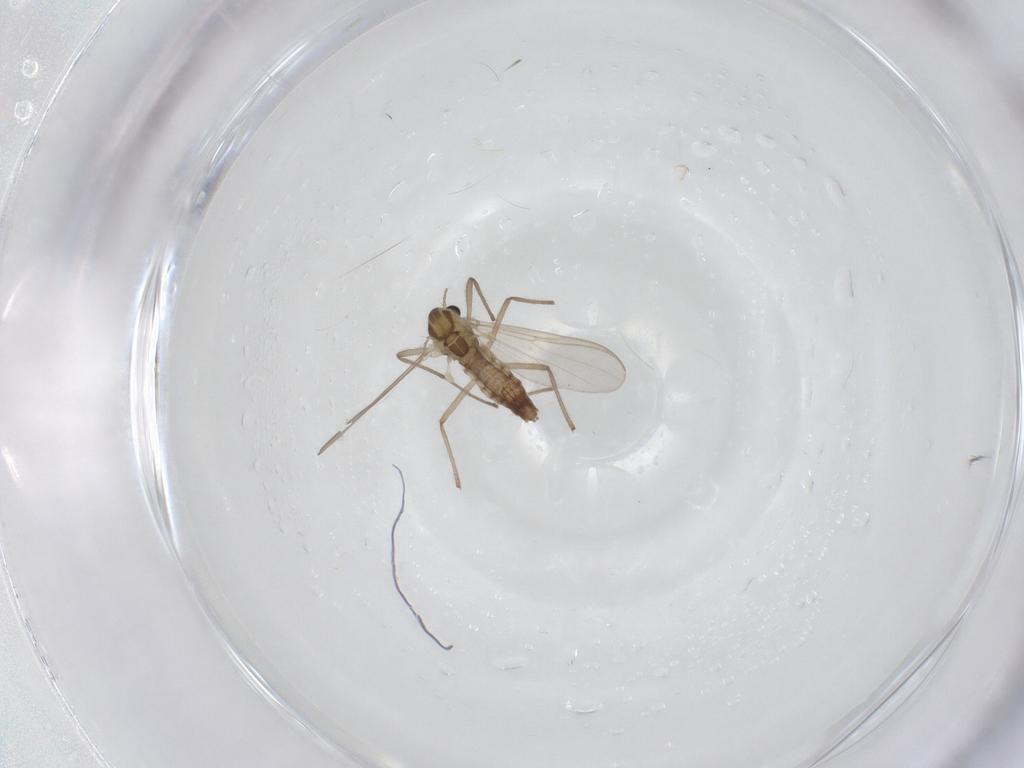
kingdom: Animalia
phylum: Arthropoda
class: Insecta
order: Diptera
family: Chironomidae
